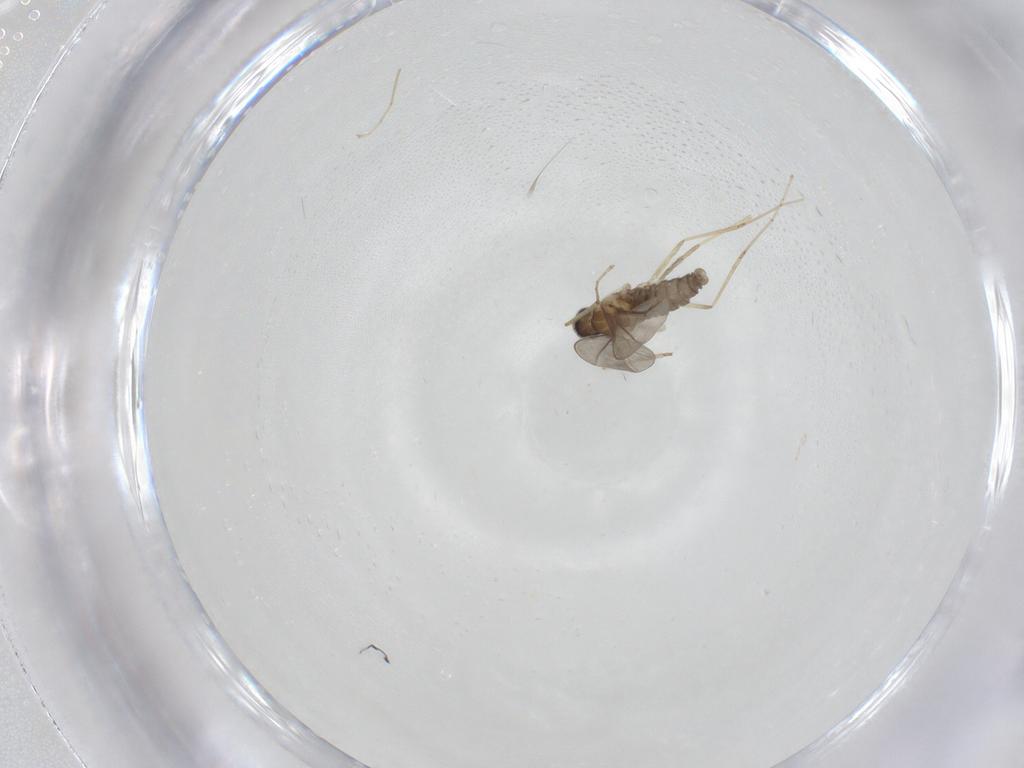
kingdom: Animalia
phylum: Arthropoda
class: Insecta
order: Diptera
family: Cecidomyiidae
